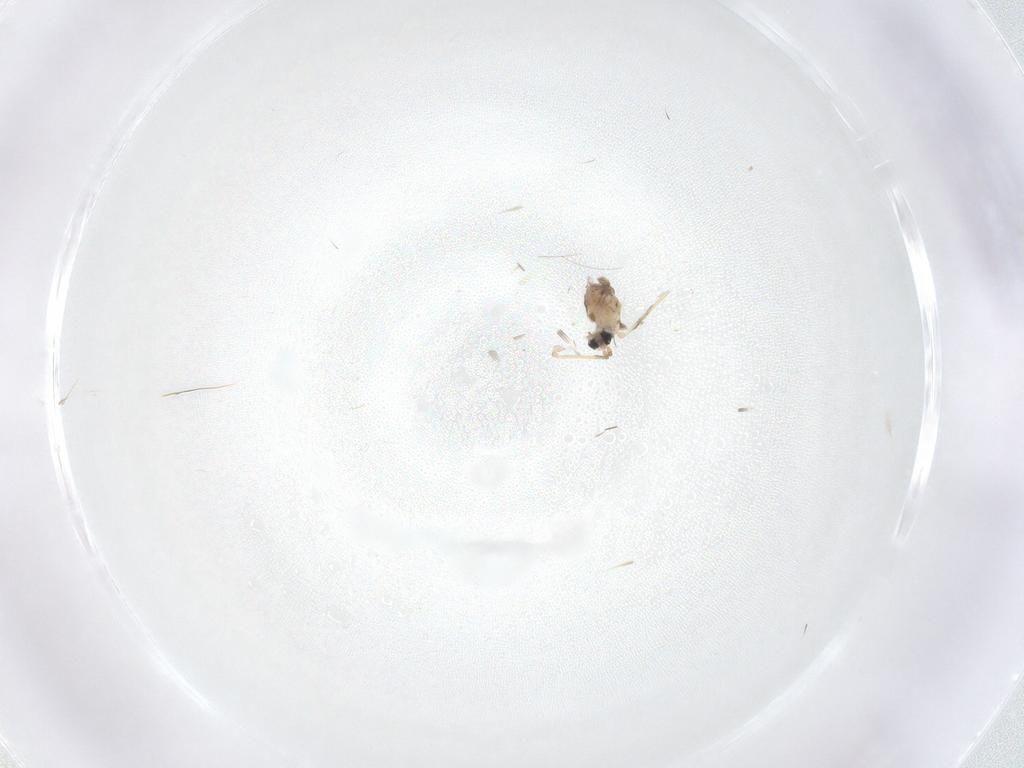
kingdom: Animalia
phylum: Arthropoda
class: Insecta
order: Diptera
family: Cecidomyiidae
